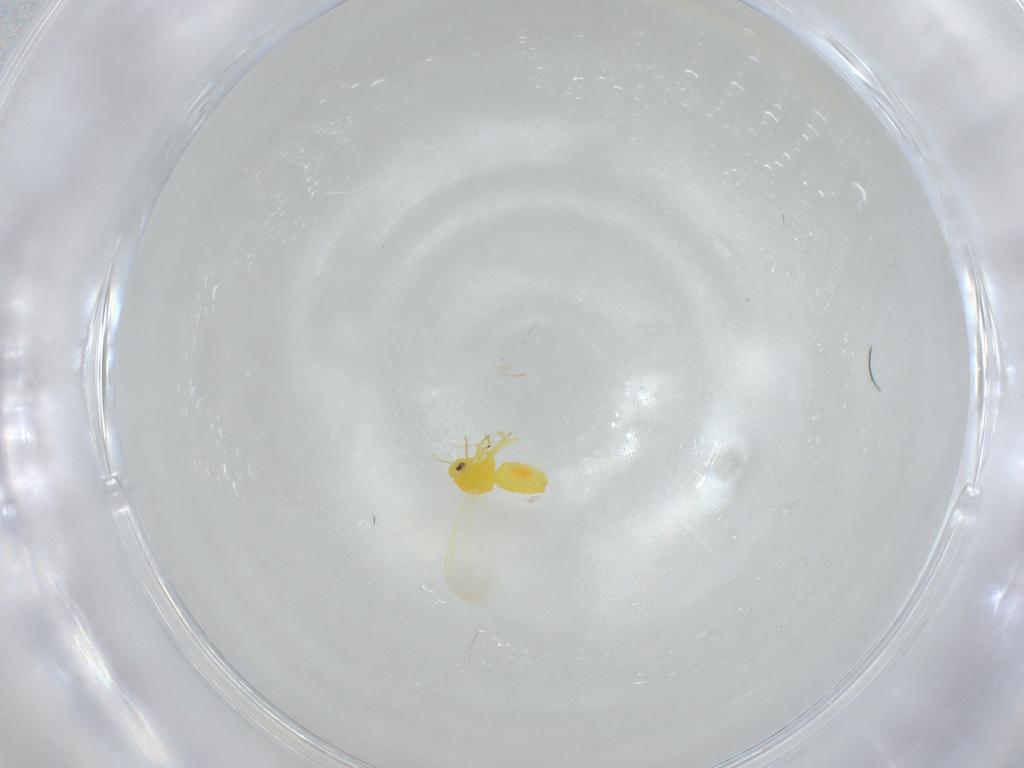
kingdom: Animalia
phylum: Arthropoda
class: Insecta
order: Hemiptera
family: Aleyrodidae
